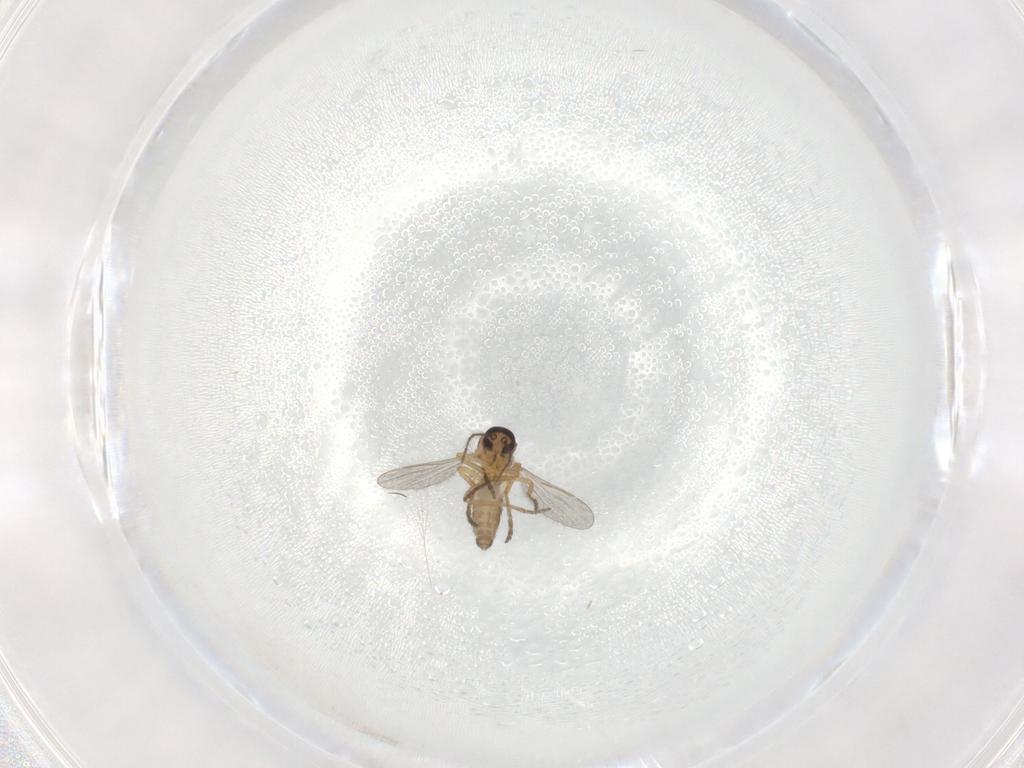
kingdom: Animalia
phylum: Arthropoda
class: Insecta
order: Diptera
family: Ceratopogonidae
